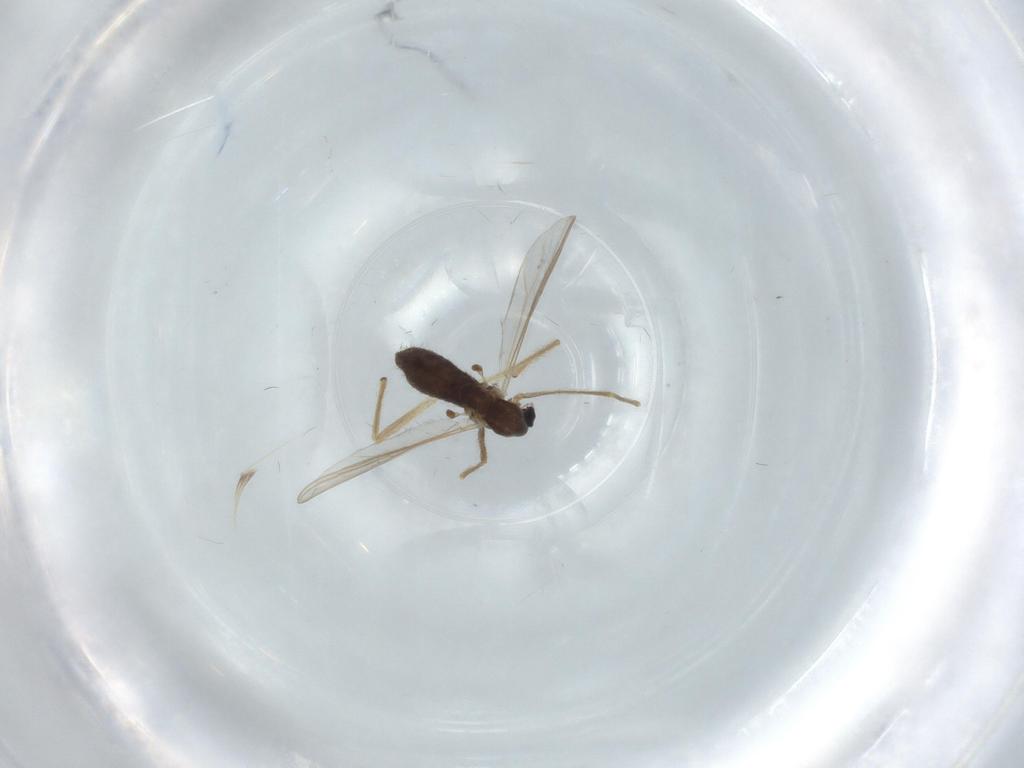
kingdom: Animalia
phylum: Arthropoda
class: Insecta
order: Diptera
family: Chironomidae
